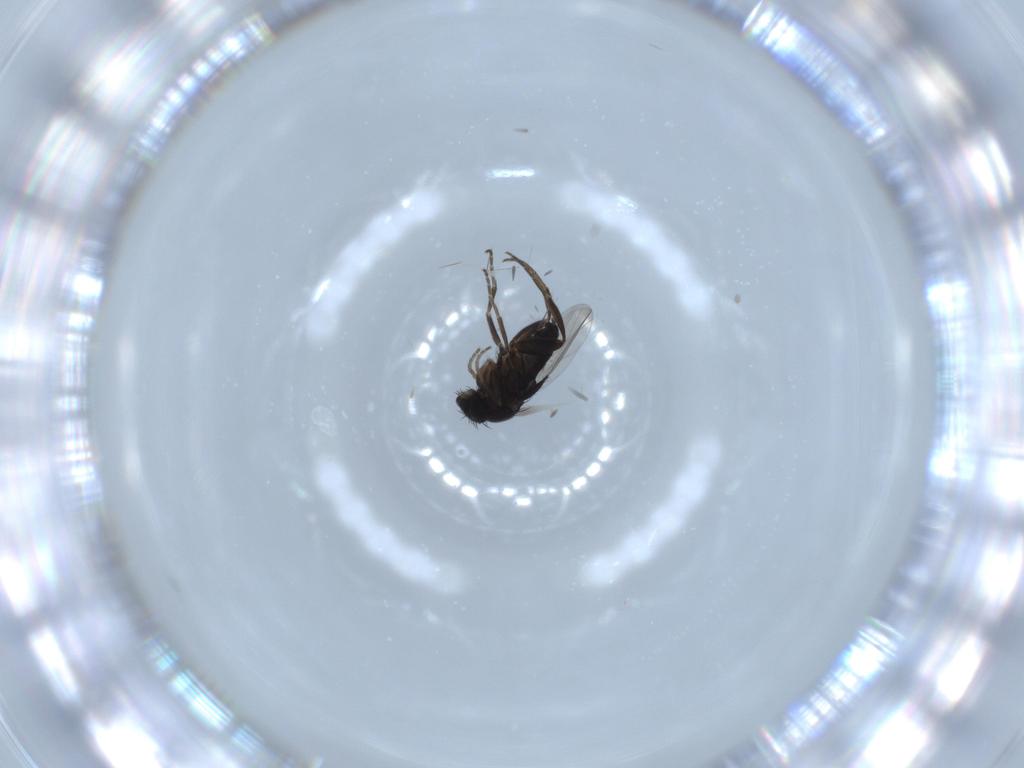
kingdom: Animalia
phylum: Arthropoda
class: Insecta
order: Diptera
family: Phoridae
